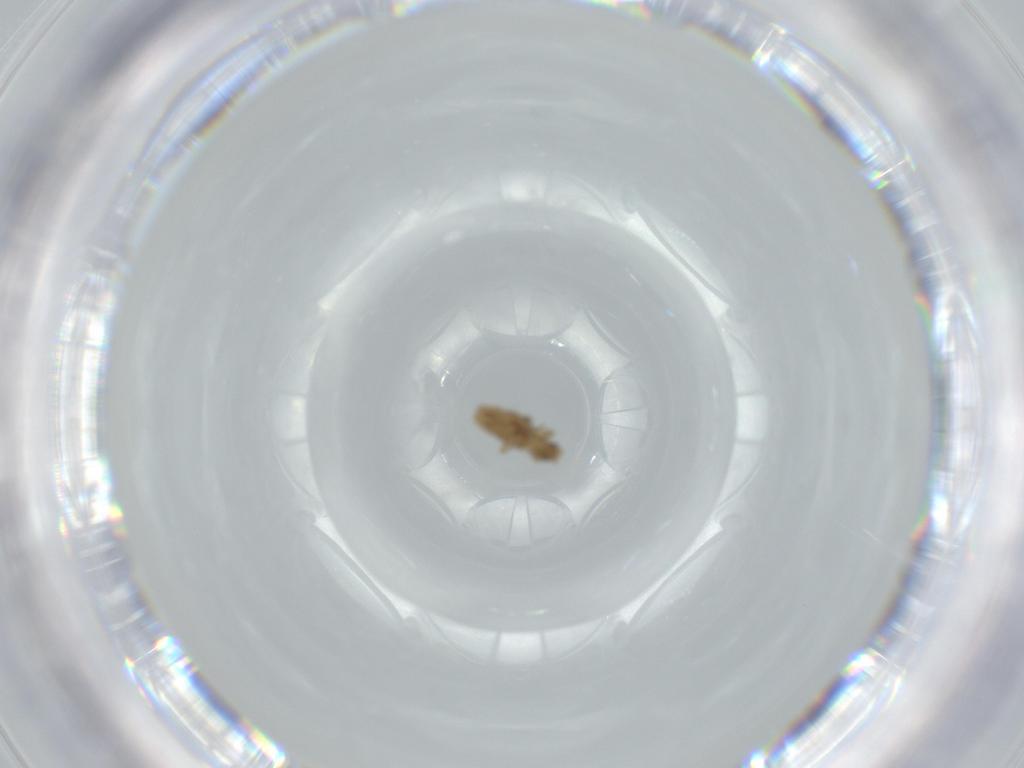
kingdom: Animalia
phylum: Arthropoda
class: Insecta
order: Diptera
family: Phoridae
